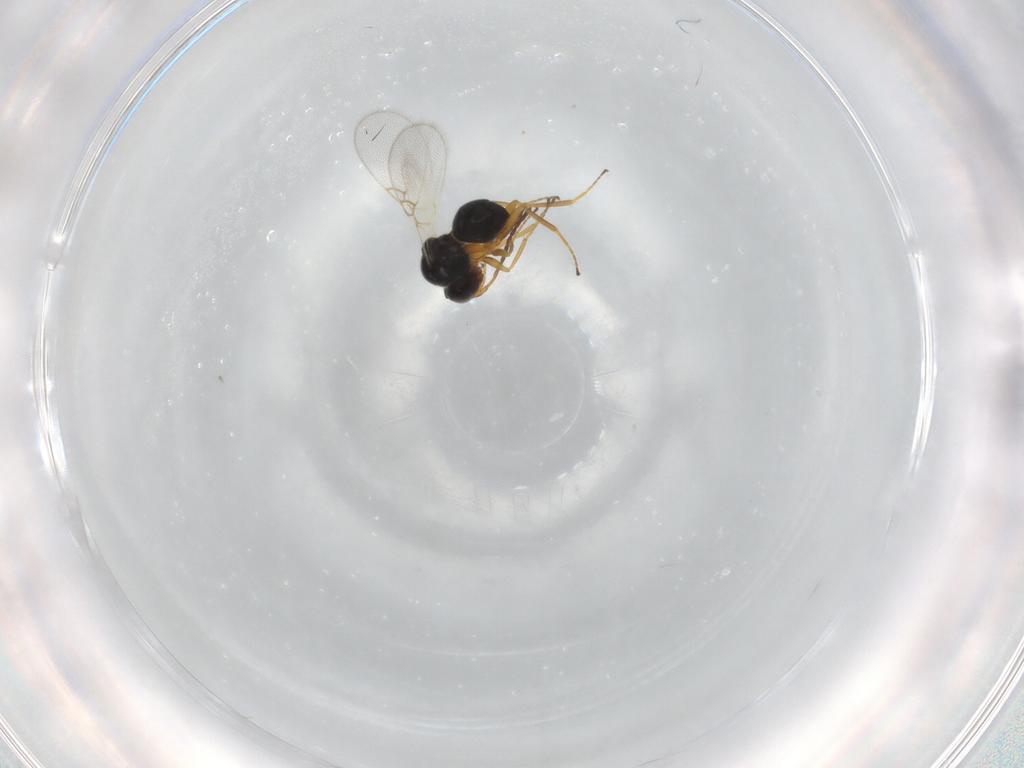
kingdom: Animalia
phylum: Arthropoda
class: Insecta
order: Hymenoptera
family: Figitidae
